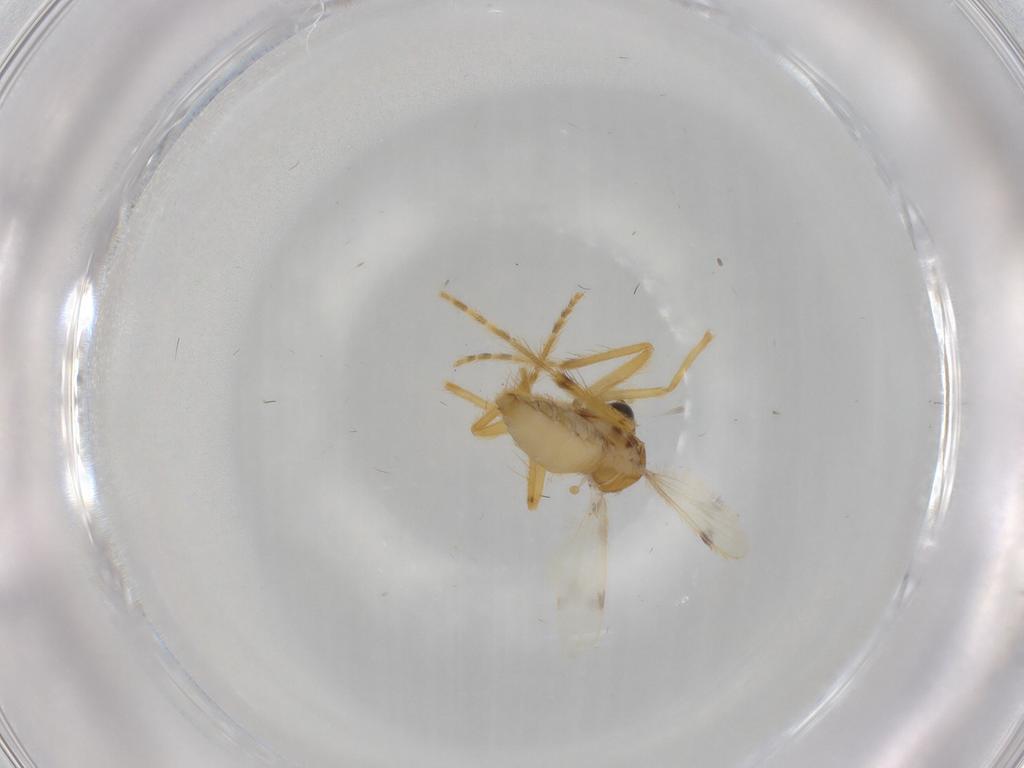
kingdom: Animalia
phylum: Arthropoda
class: Insecta
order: Diptera
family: Corethrellidae
